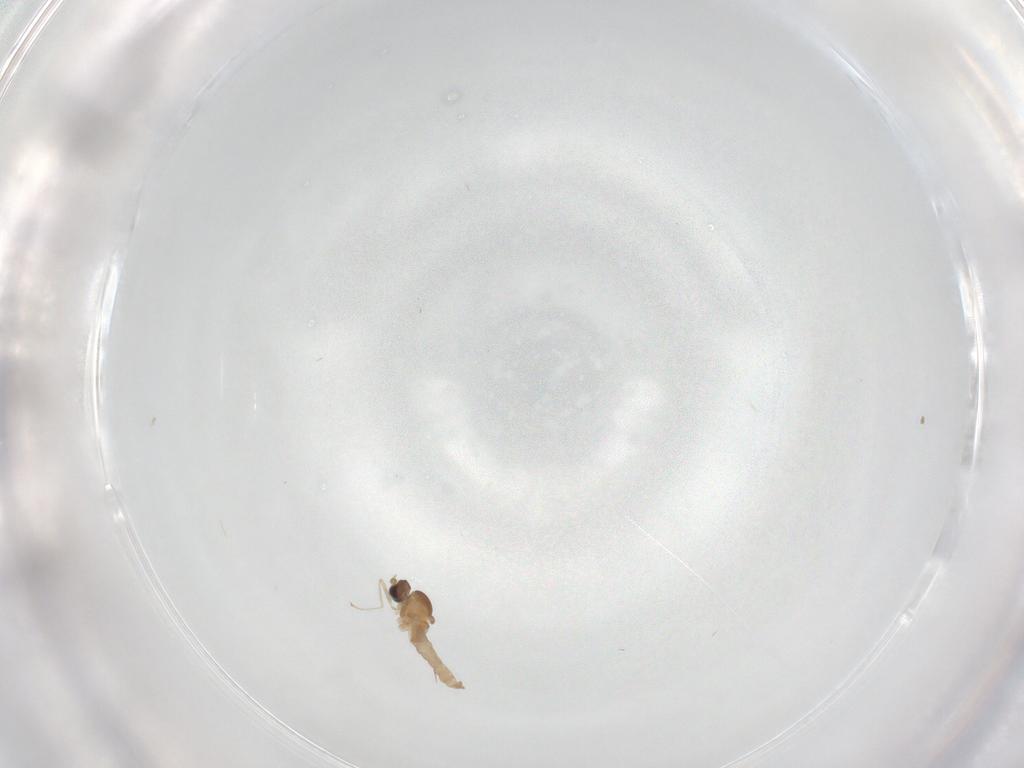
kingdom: Animalia
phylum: Arthropoda
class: Insecta
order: Diptera
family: Cecidomyiidae
